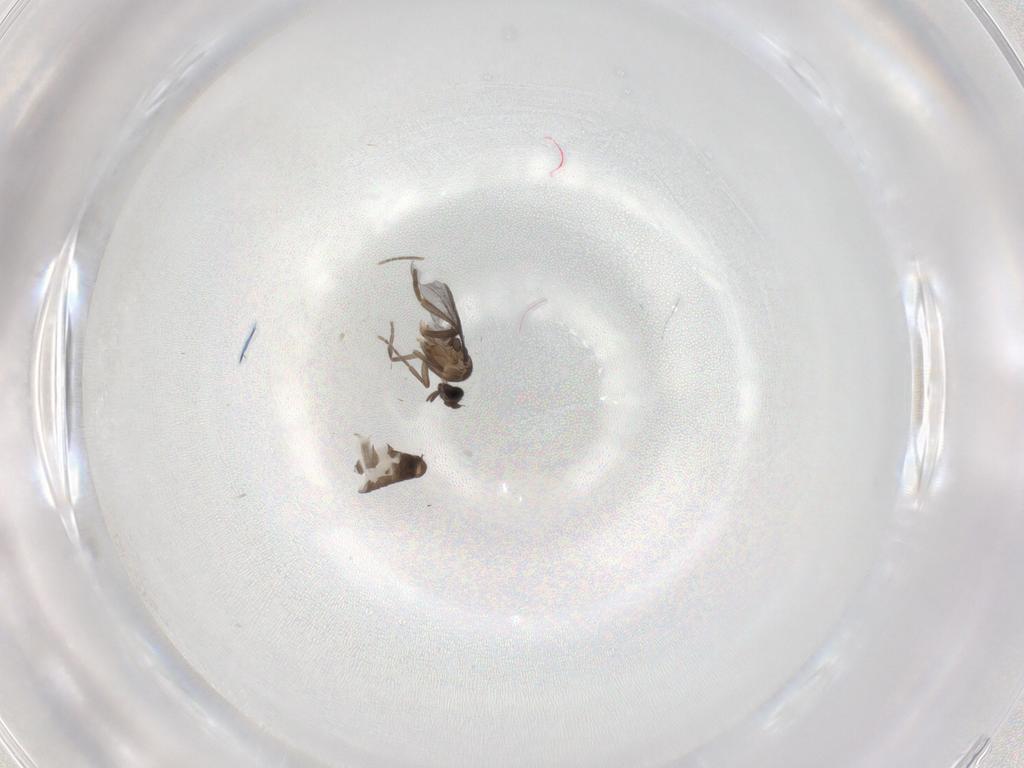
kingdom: Animalia
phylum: Arthropoda
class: Insecta
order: Diptera
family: Phoridae
